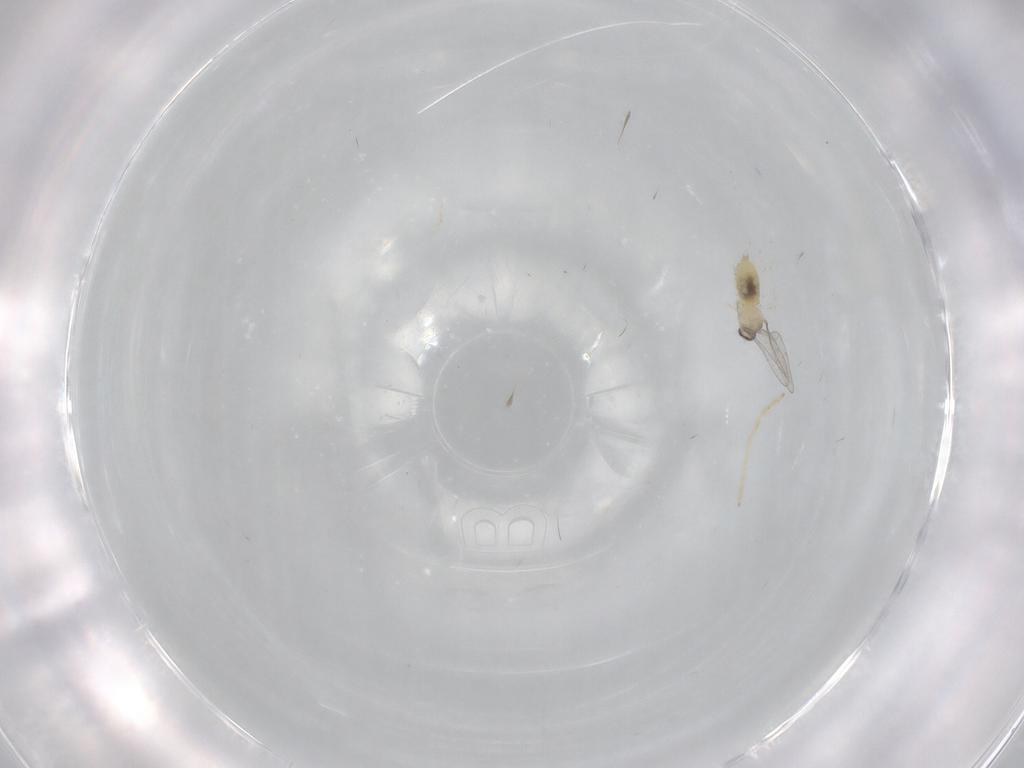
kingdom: Animalia
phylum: Arthropoda
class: Insecta
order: Diptera
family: Cecidomyiidae
